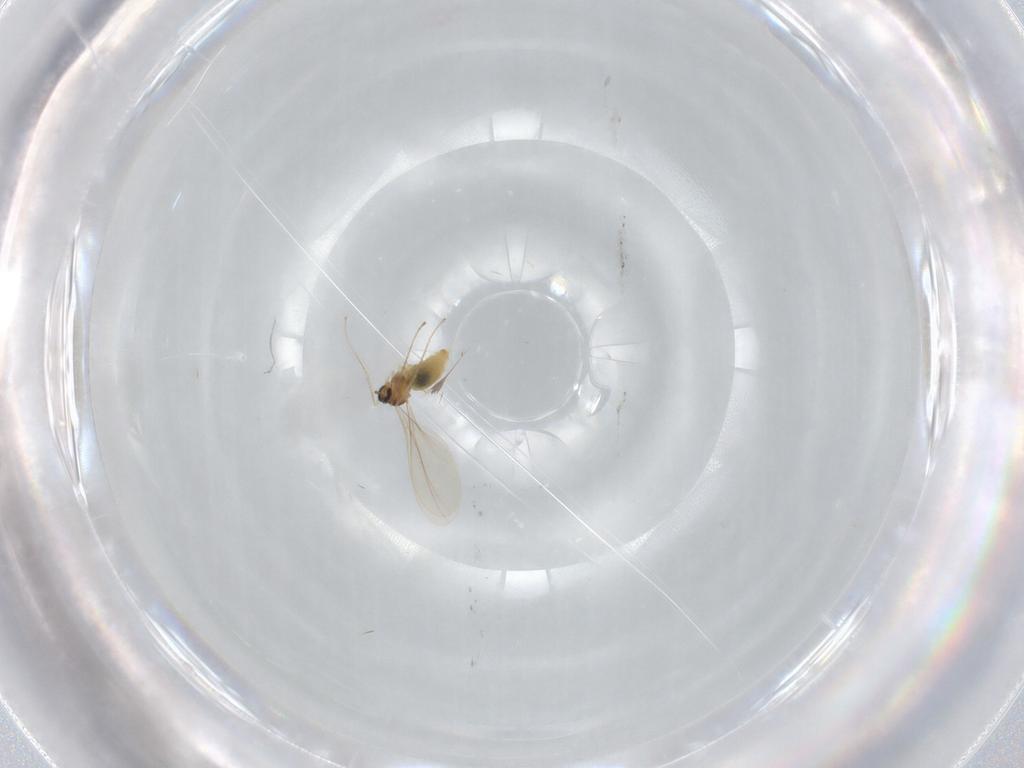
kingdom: Animalia
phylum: Arthropoda
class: Insecta
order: Diptera
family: Cecidomyiidae
